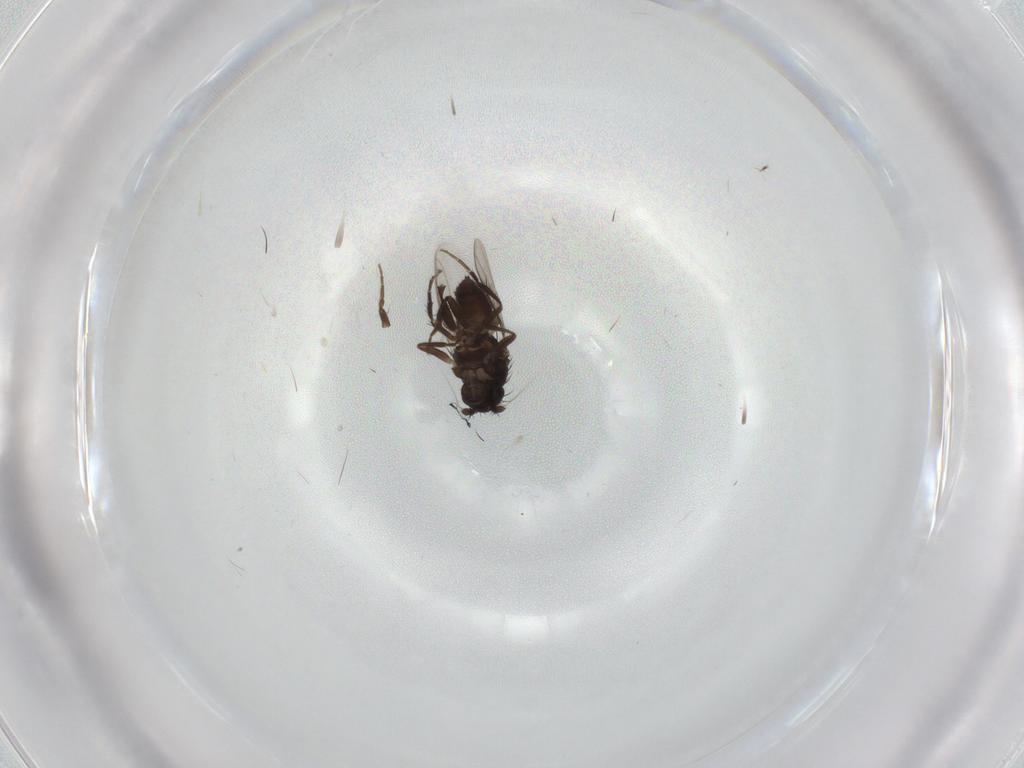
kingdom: Animalia
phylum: Arthropoda
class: Insecta
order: Diptera
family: Sphaeroceridae
